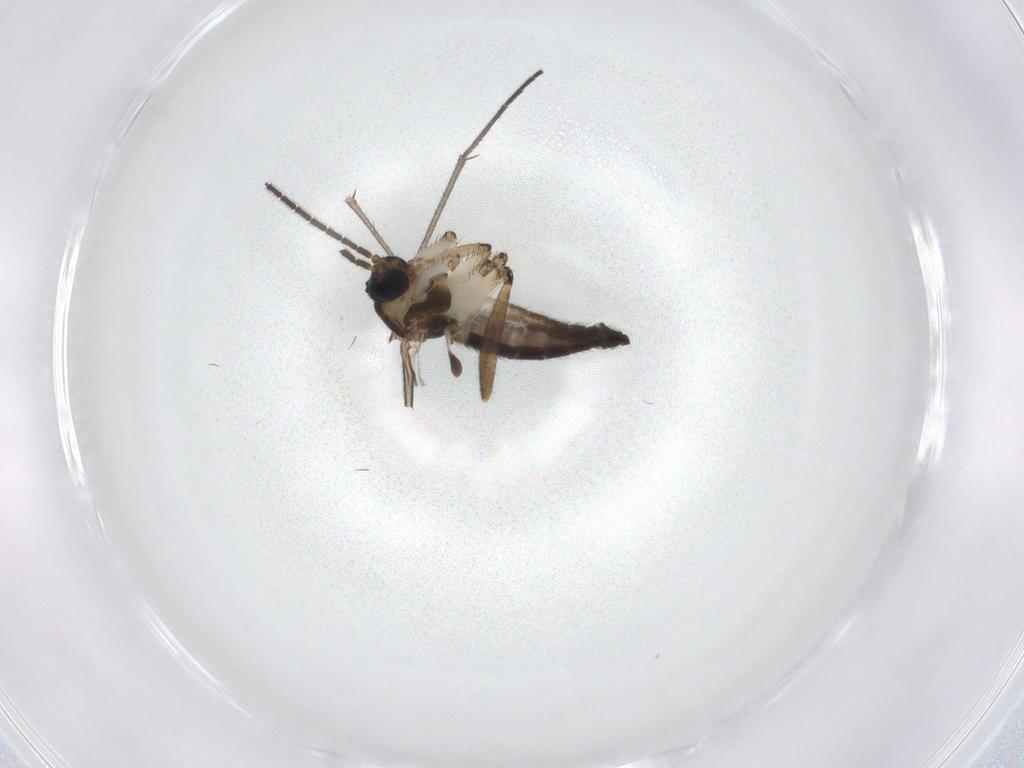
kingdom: Animalia
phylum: Arthropoda
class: Insecta
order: Diptera
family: Sciaridae
